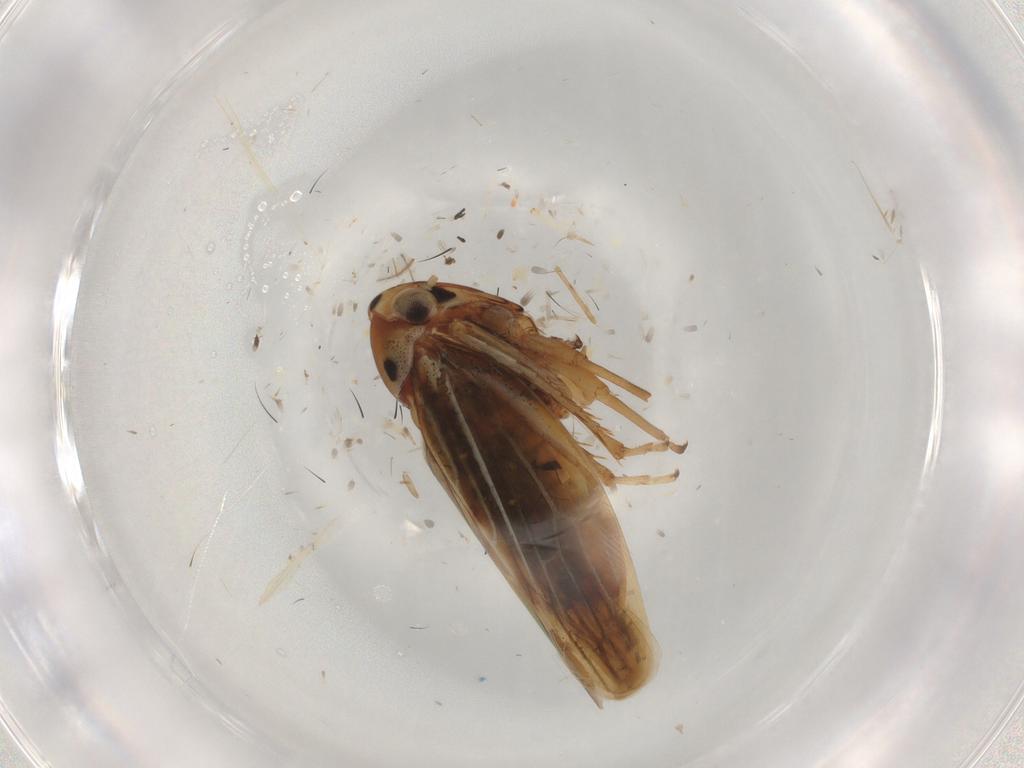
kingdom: Animalia
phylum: Arthropoda
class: Insecta
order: Hemiptera
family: Cicadellidae
